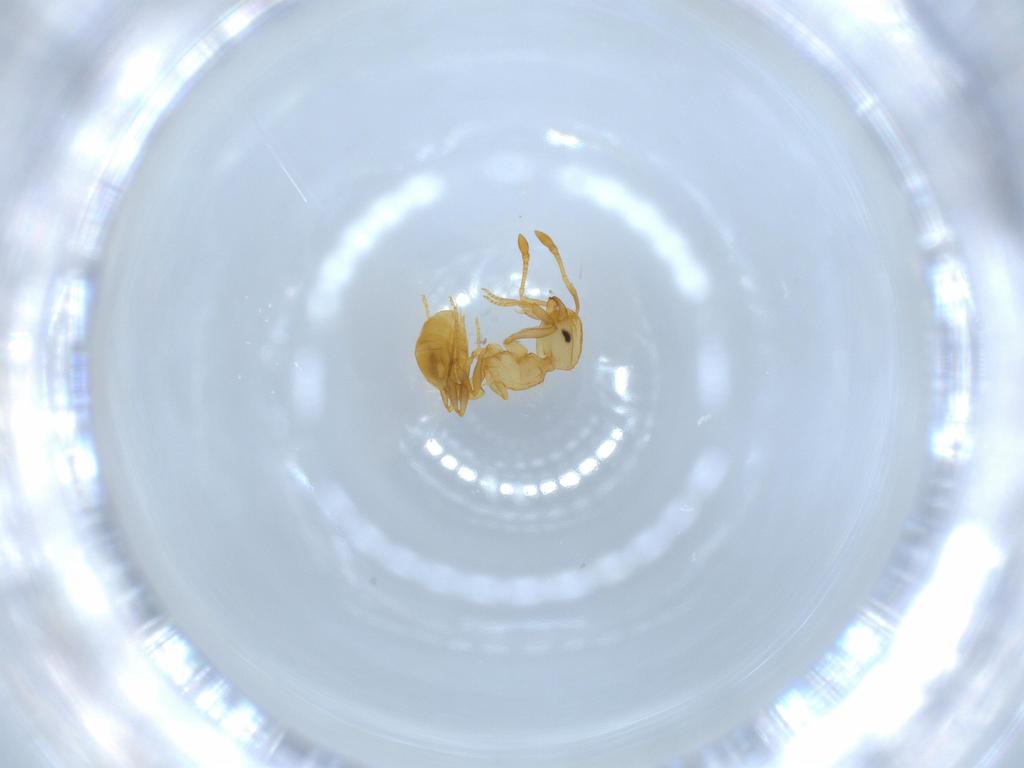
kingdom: Animalia
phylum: Arthropoda
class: Insecta
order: Hymenoptera
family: Formicidae
